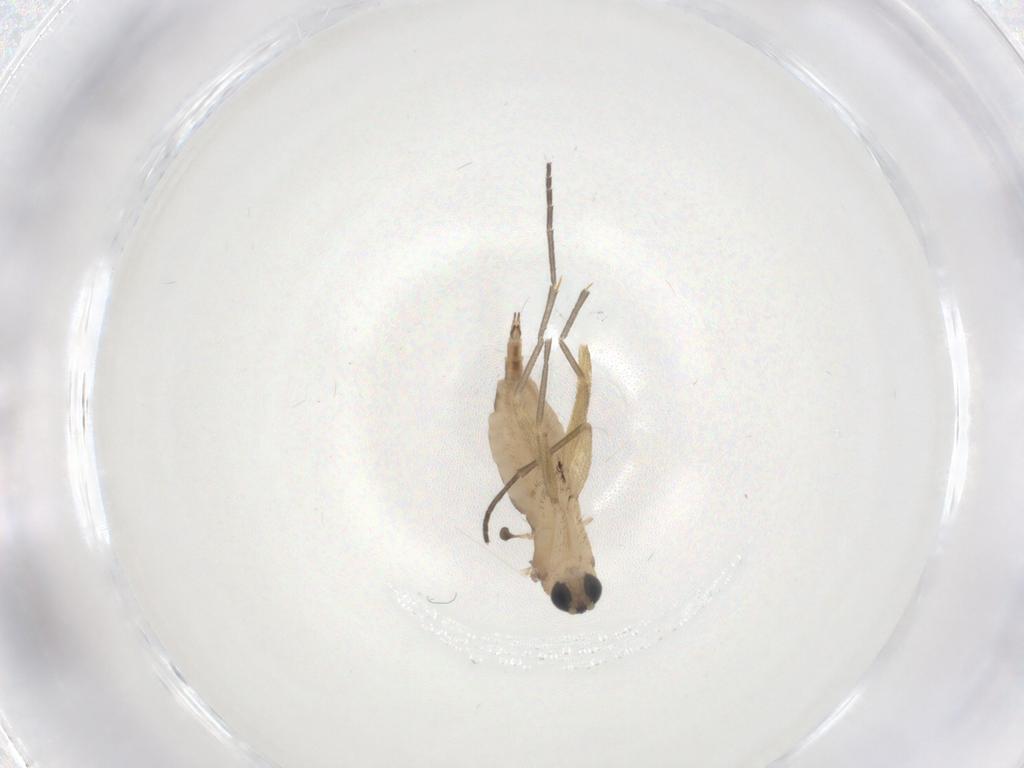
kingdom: Animalia
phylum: Arthropoda
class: Insecta
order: Diptera
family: Sciaridae
